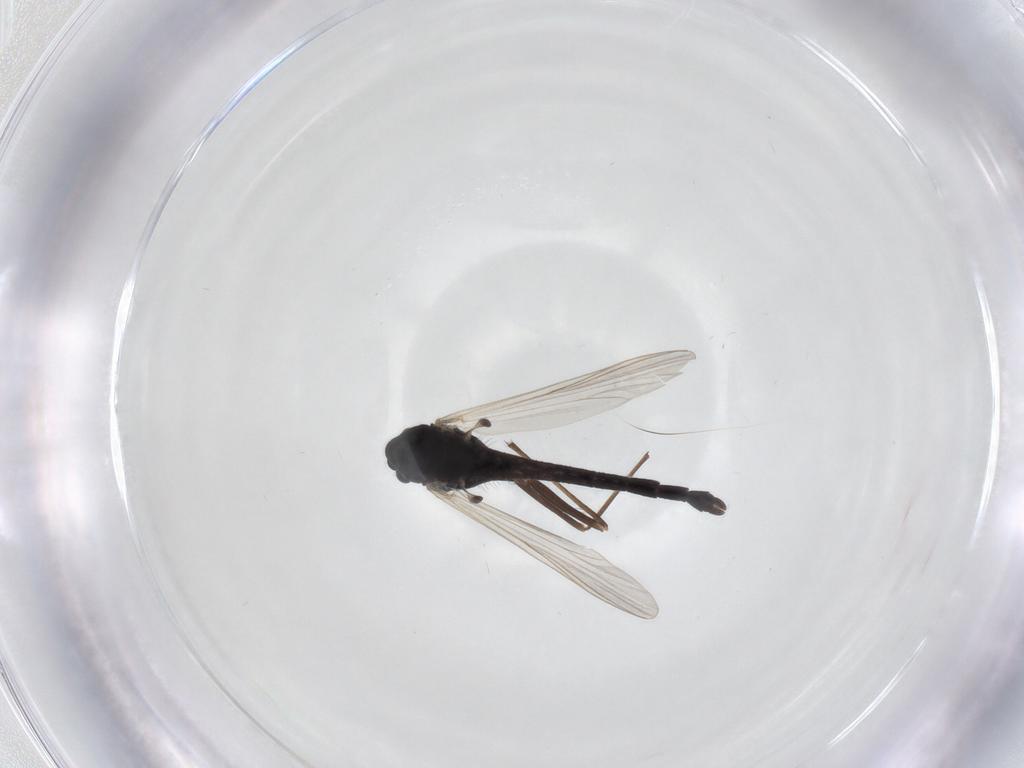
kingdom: Animalia
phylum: Arthropoda
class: Insecta
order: Diptera
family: Chironomidae
